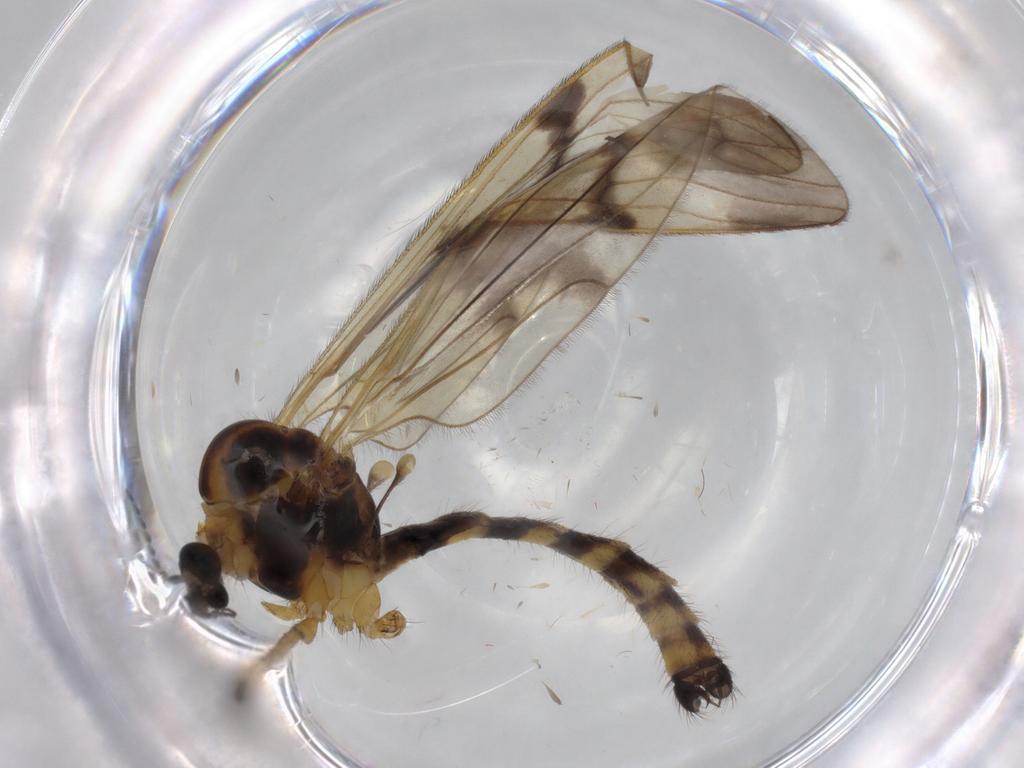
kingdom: Animalia
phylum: Arthropoda
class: Insecta
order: Diptera
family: Limoniidae
